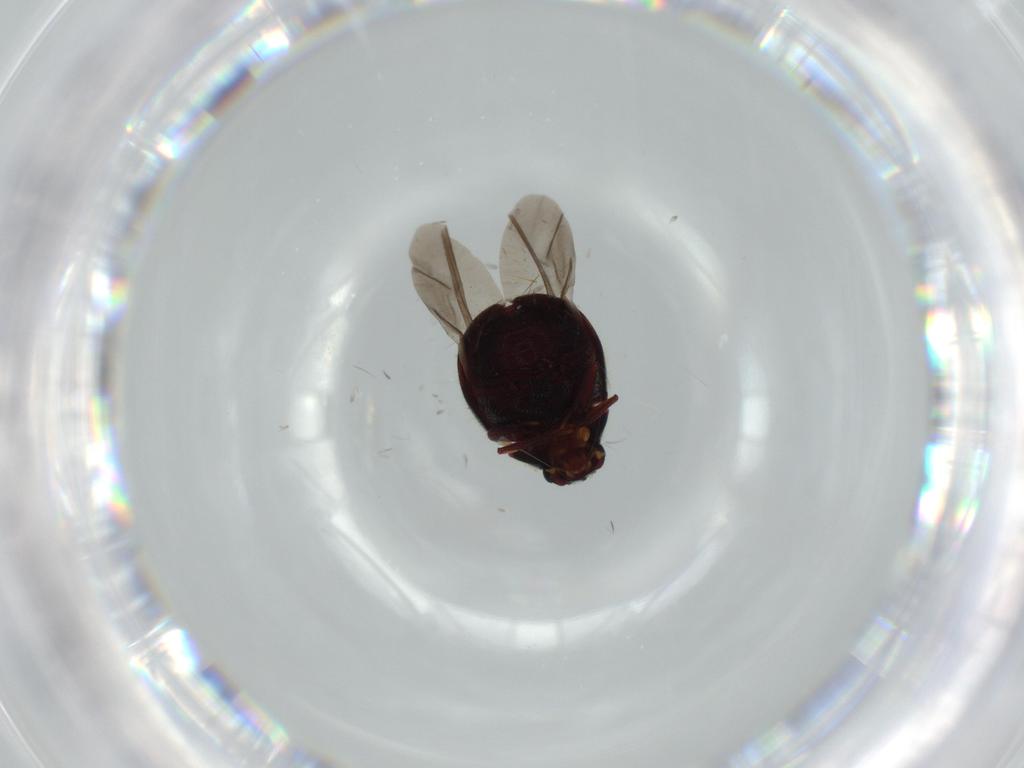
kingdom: Animalia
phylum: Arthropoda
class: Insecta
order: Coleoptera
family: Ptinidae
